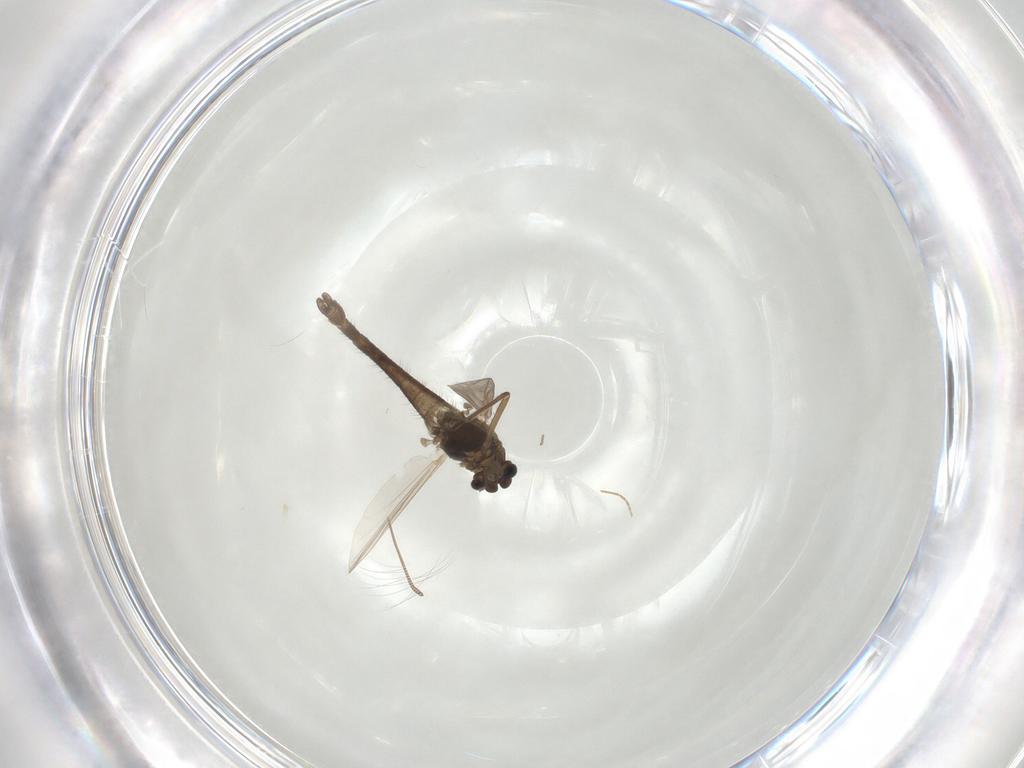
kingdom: Animalia
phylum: Arthropoda
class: Insecta
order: Diptera
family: Chironomidae
